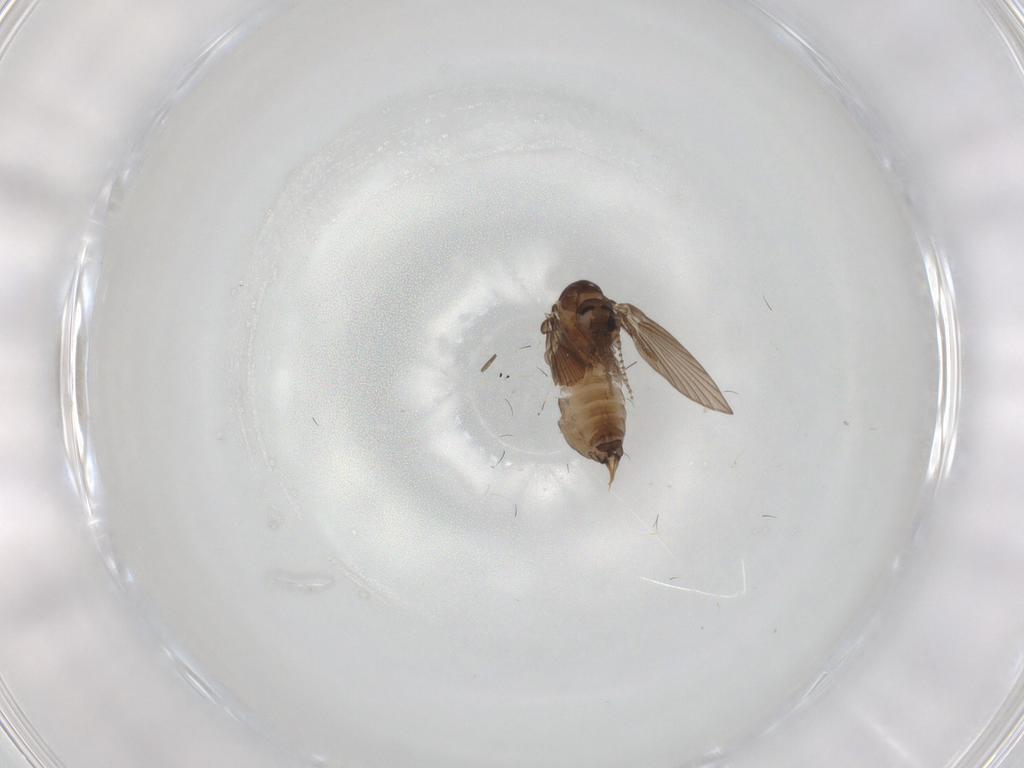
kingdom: Animalia
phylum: Arthropoda
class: Insecta
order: Diptera
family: Psychodidae
